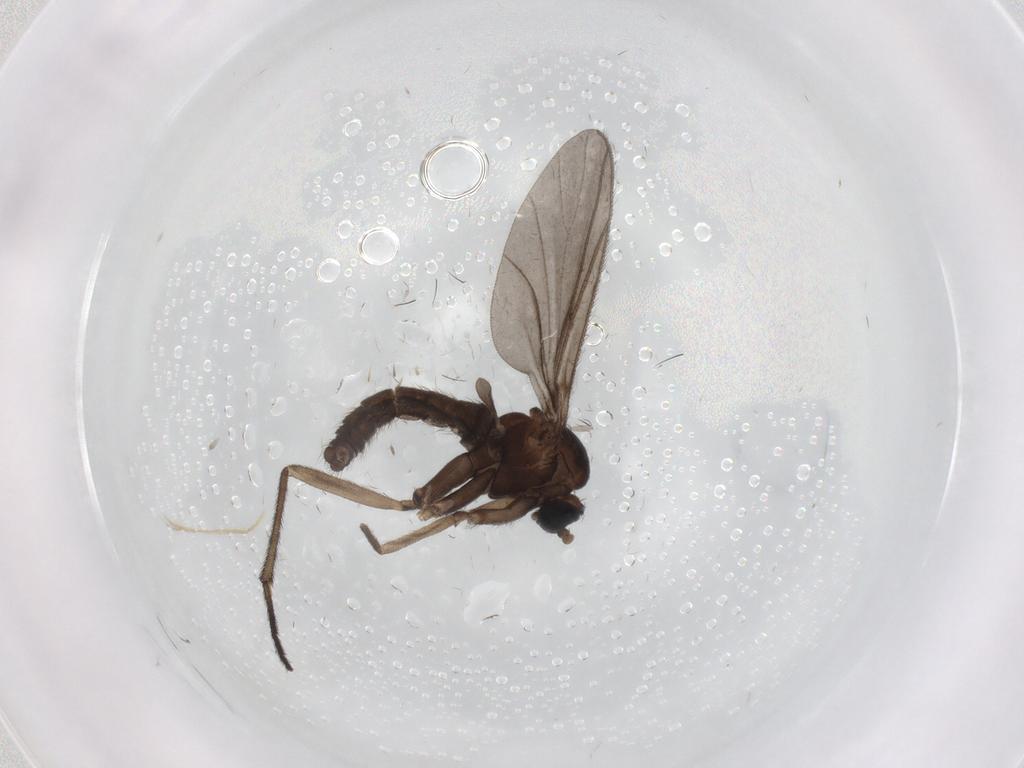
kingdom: Animalia
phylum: Arthropoda
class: Insecta
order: Diptera
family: Sciaridae
